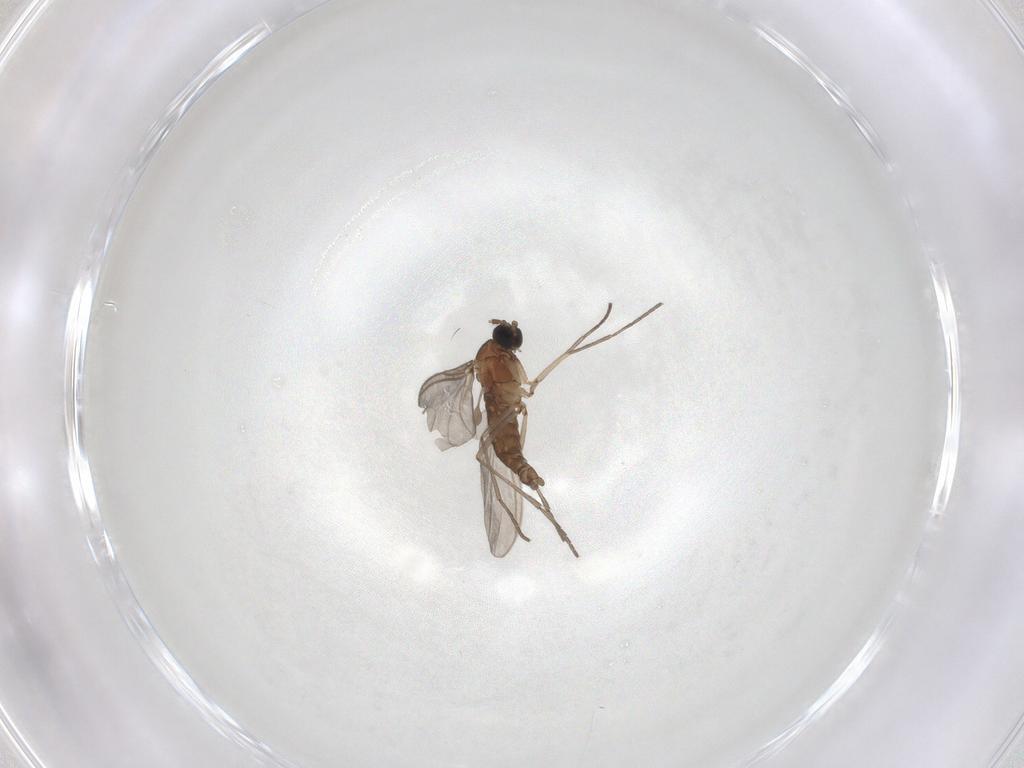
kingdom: Animalia
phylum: Arthropoda
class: Insecta
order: Diptera
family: Sciaridae
